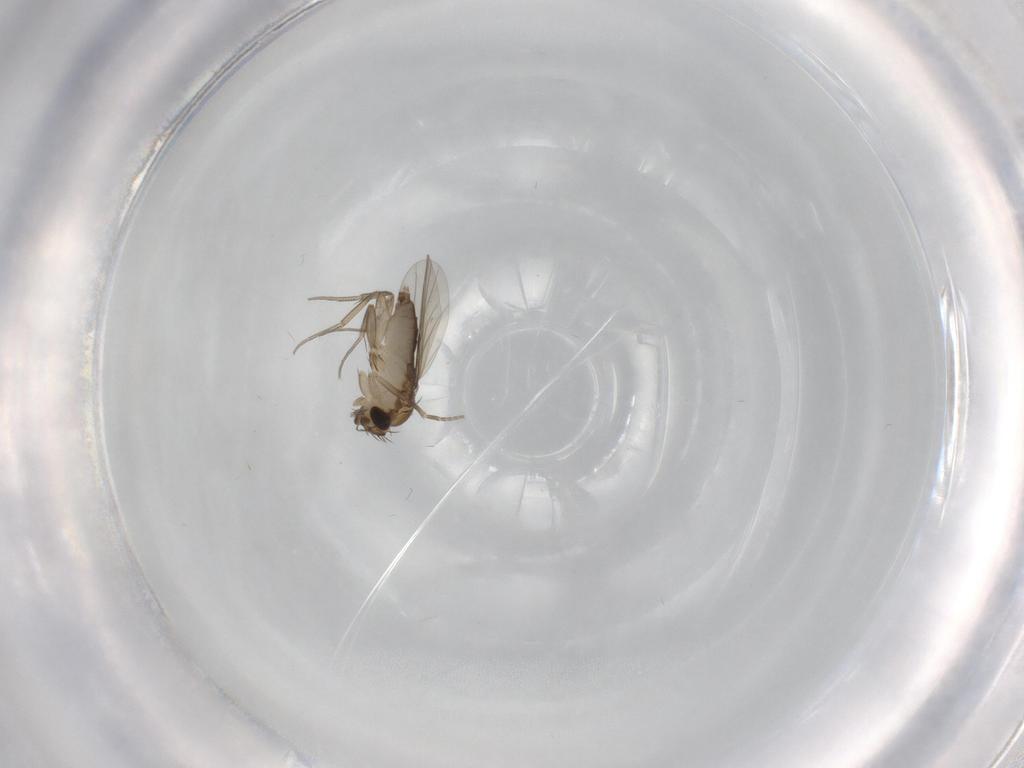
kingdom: Animalia
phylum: Arthropoda
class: Insecta
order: Diptera
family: Phoridae
